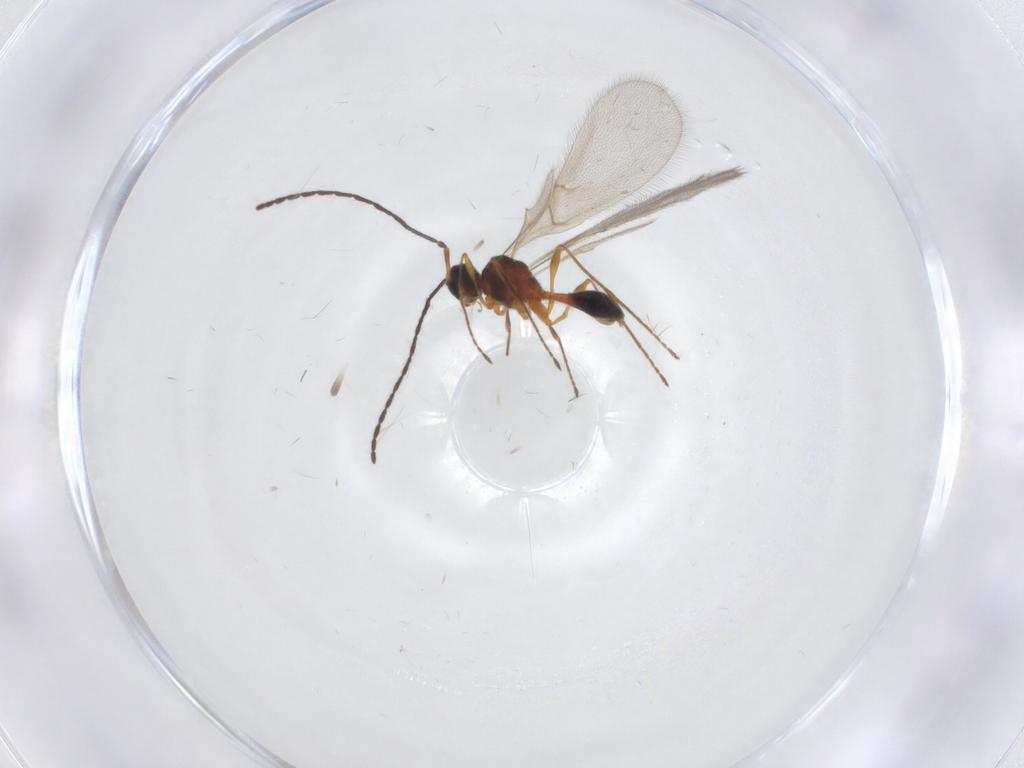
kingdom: Animalia
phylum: Arthropoda
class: Insecta
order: Hymenoptera
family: Diapriidae
